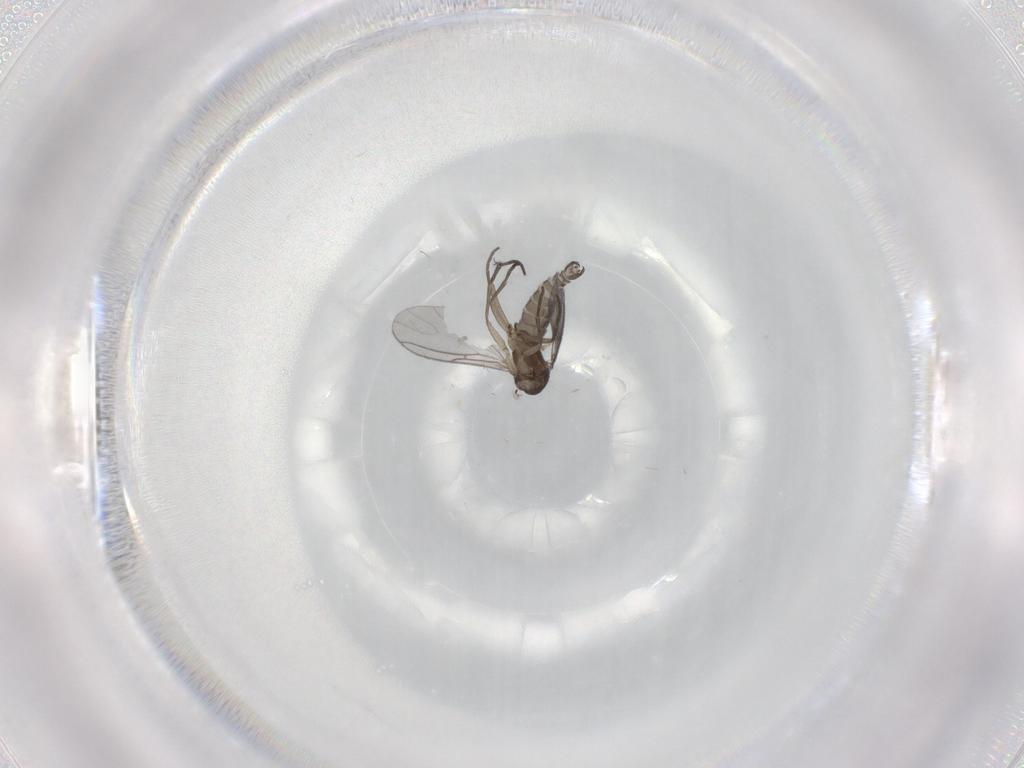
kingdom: Animalia
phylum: Arthropoda
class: Insecta
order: Diptera
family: Sciaridae
